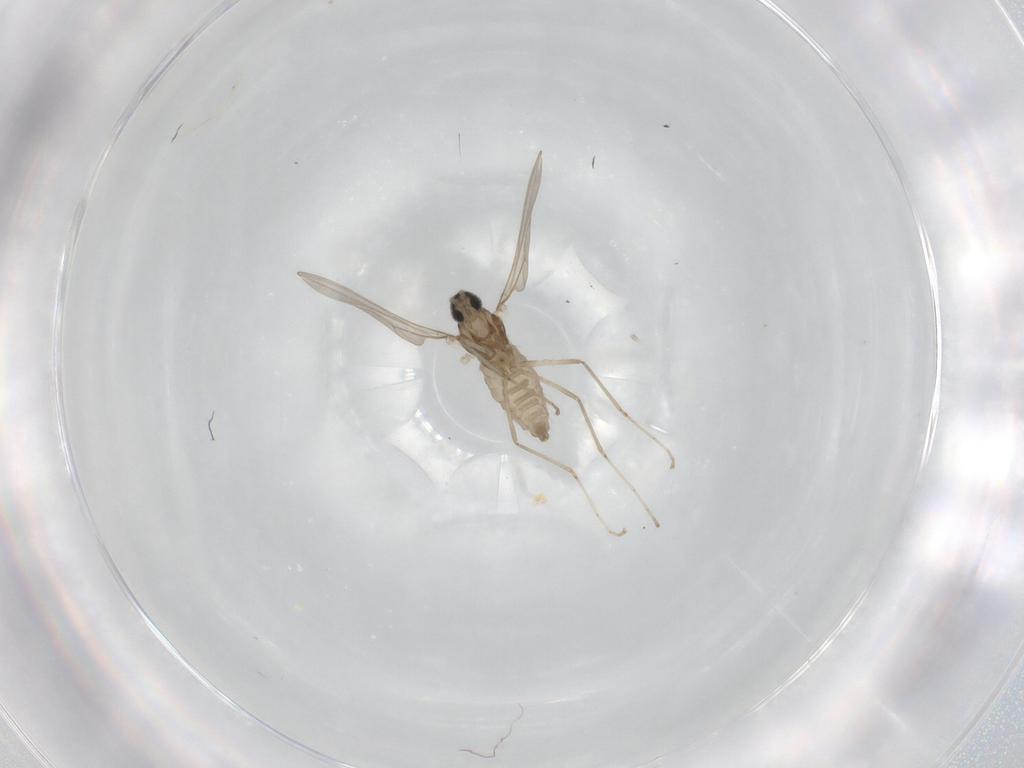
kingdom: Animalia
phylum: Arthropoda
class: Insecta
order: Diptera
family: Cecidomyiidae
